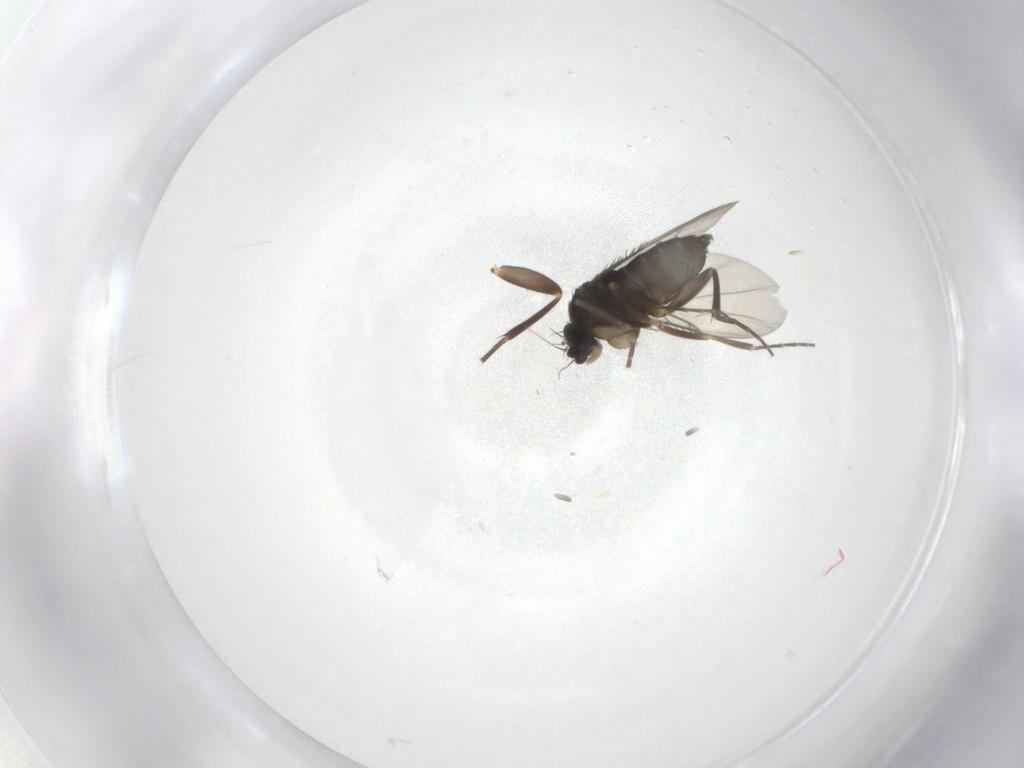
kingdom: Animalia
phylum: Arthropoda
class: Insecta
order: Diptera
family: Phoridae
